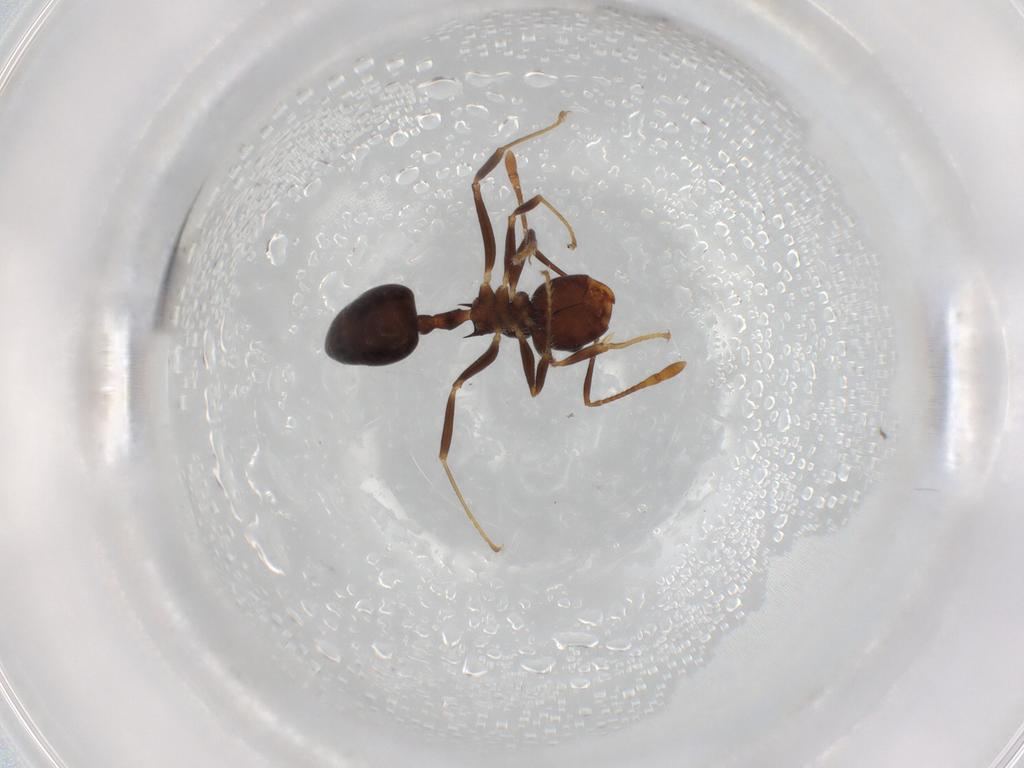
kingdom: Animalia
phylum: Arthropoda
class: Insecta
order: Hymenoptera
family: Formicidae
